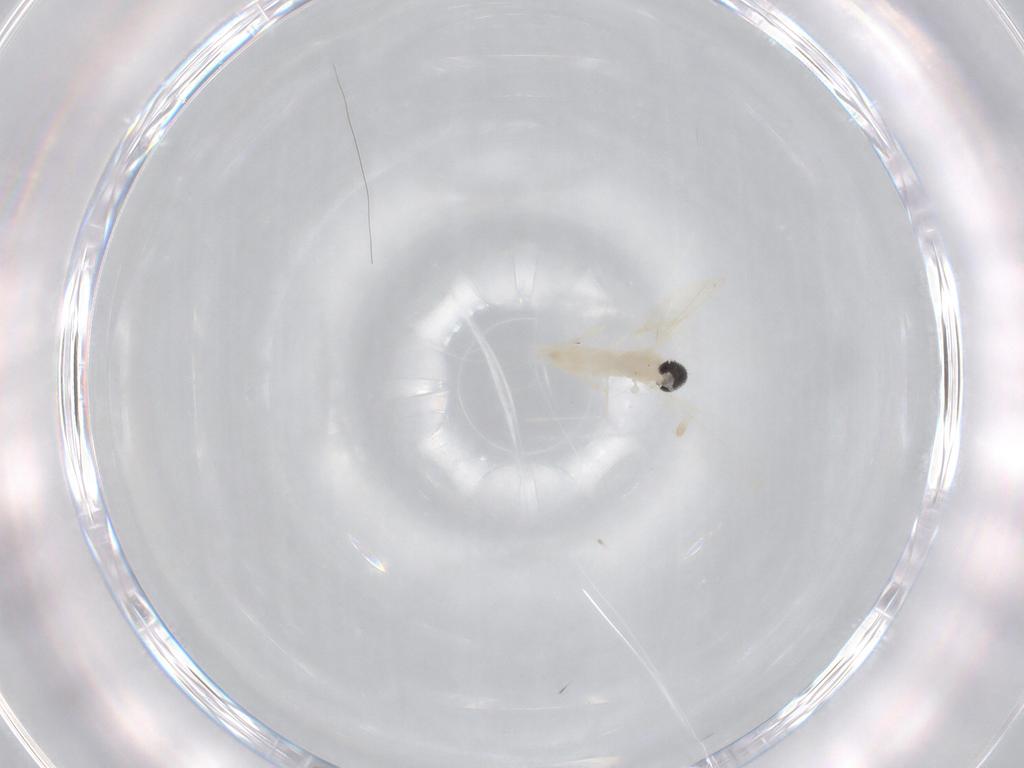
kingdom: Animalia
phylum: Arthropoda
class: Insecta
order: Diptera
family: Cecidomyiidae
